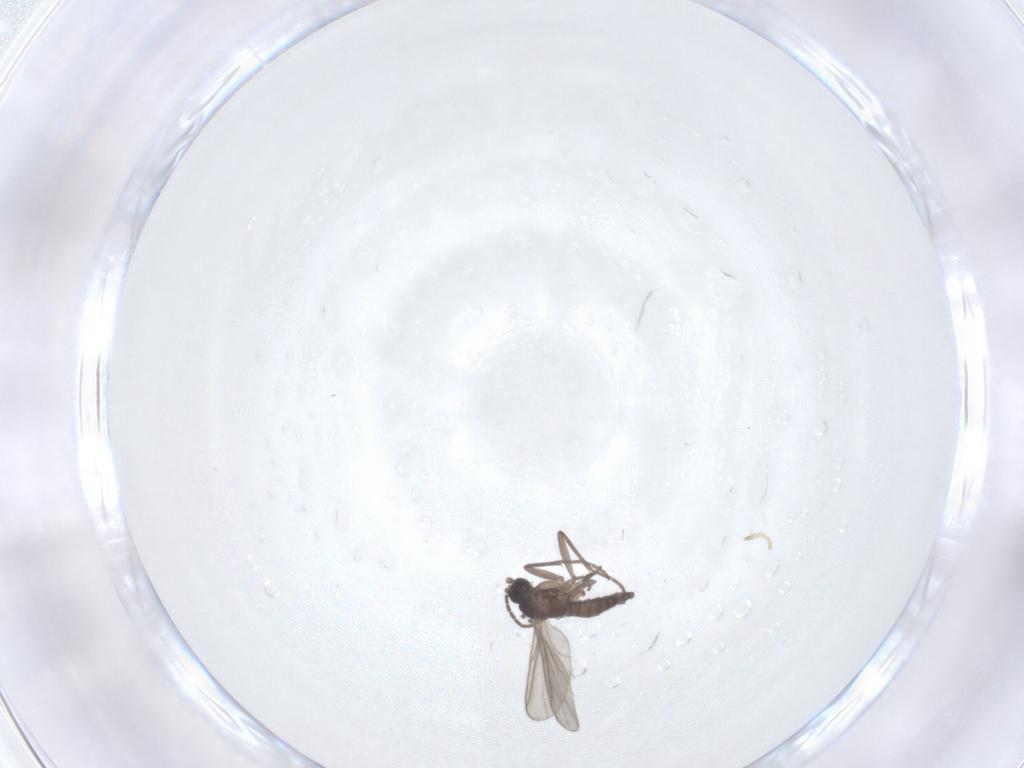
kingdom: Animalia
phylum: Arthropoda
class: Insecta
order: Diptera
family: Chironomidae
